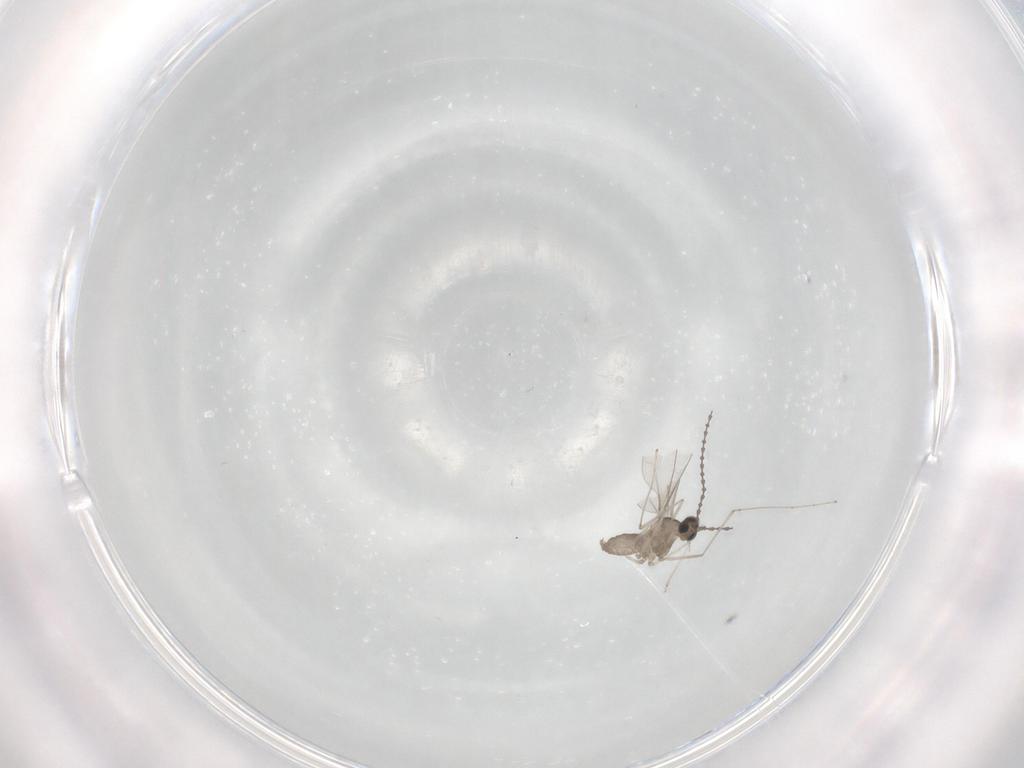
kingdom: Animalia
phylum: Arthropoda
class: Insecta
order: Diptera
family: Cecidomyiidae
